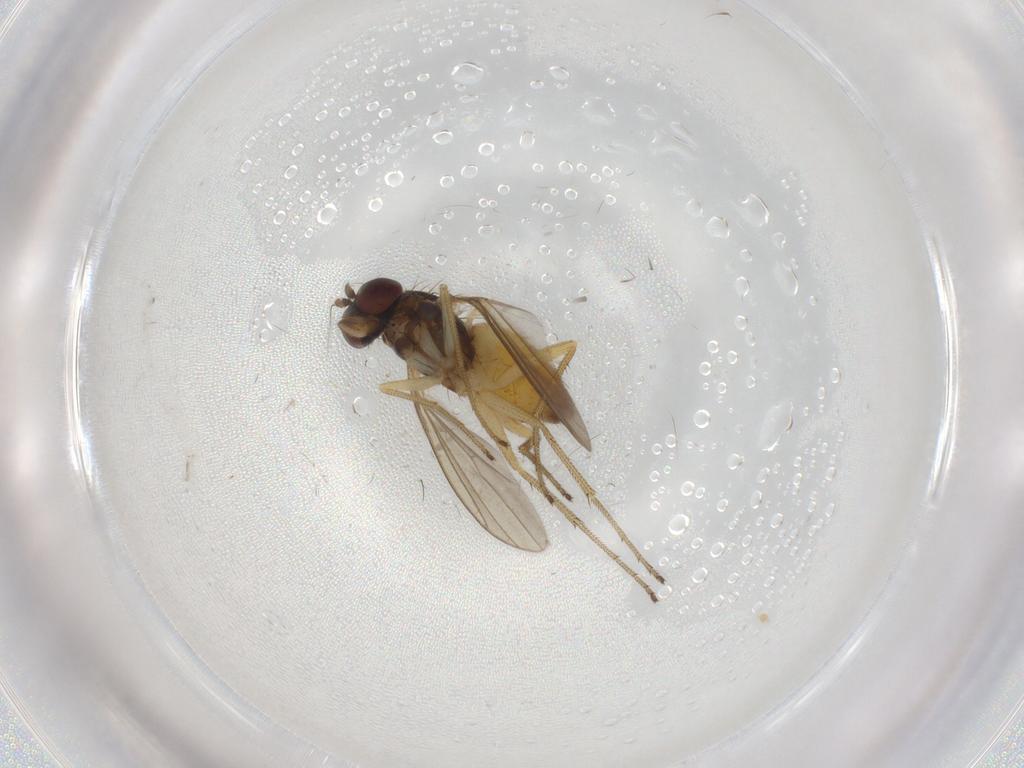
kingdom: Animalia
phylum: Arthropoda
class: Insecta
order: Diptera
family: Dolichopodidae
